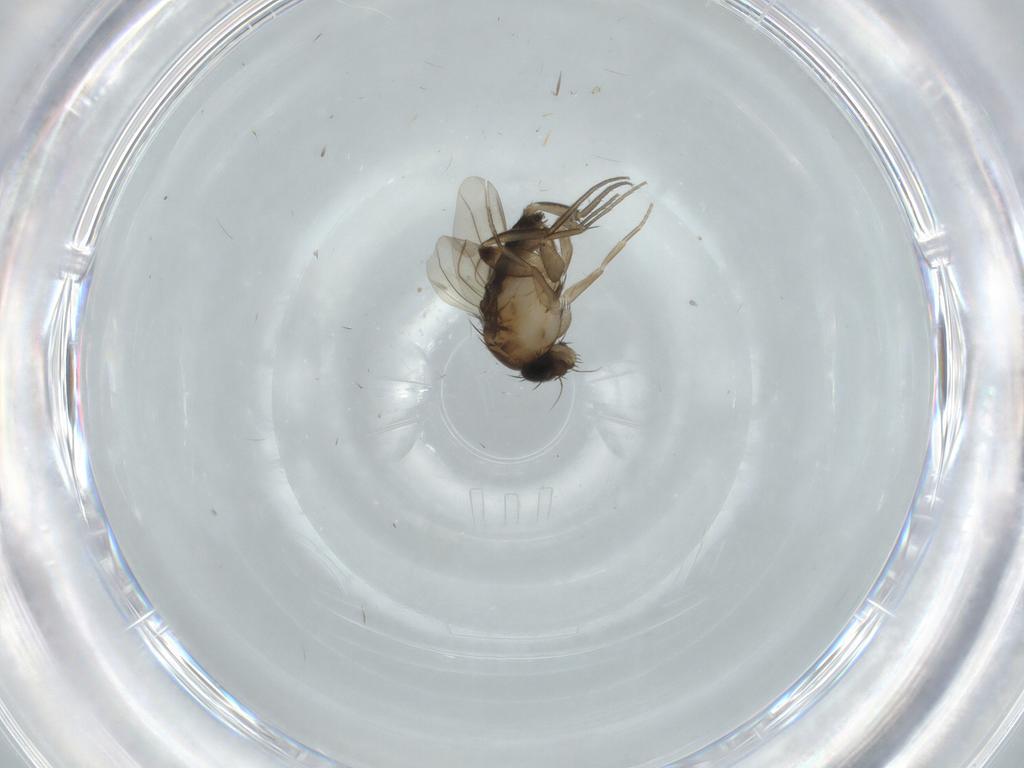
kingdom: Animalia
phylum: Arthropoda
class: Insecta
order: Diptera
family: Phoridae
